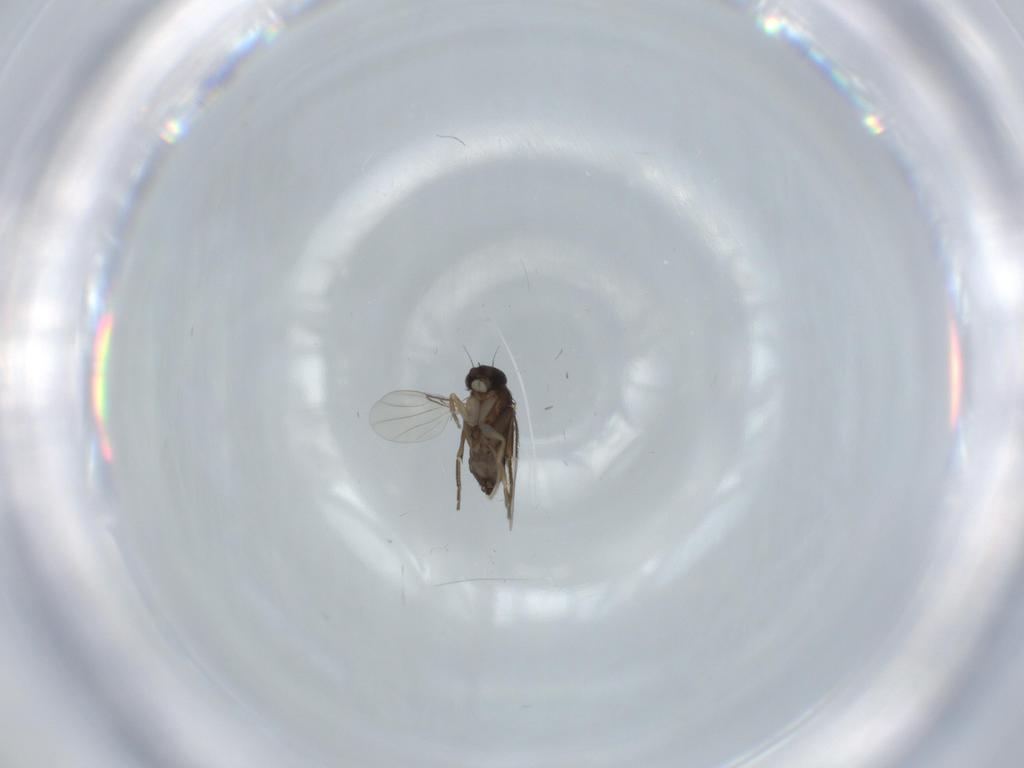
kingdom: Animalia
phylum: Arthropoda
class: Insecta
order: Diptera
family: Phoridae
